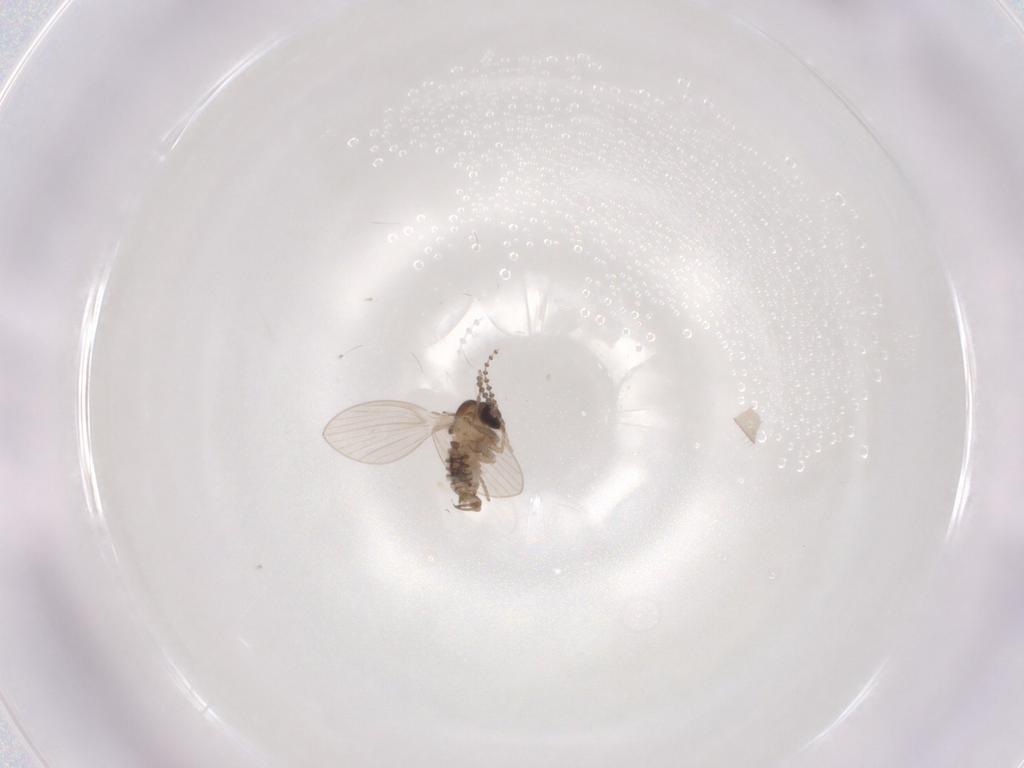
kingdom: Animalia
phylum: Arthropoda
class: Insecta
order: Diptera
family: Psychodidae
